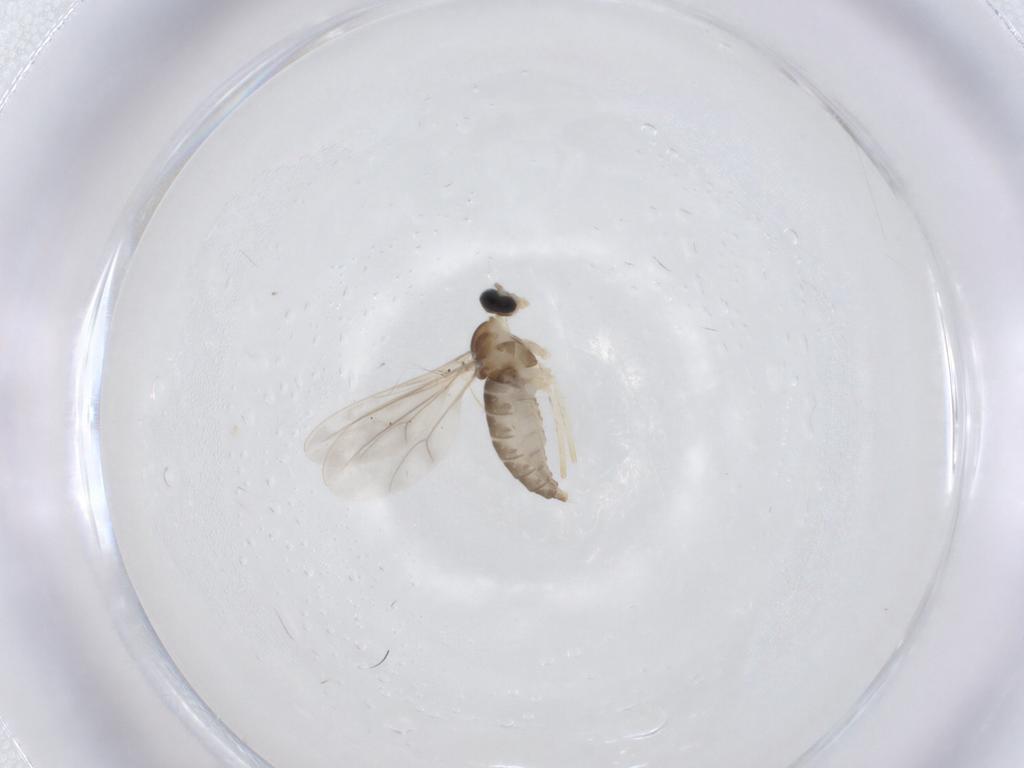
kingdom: Animalia
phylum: Arthropoda
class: Insecta
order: Diptera
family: Cecidomyiidae
